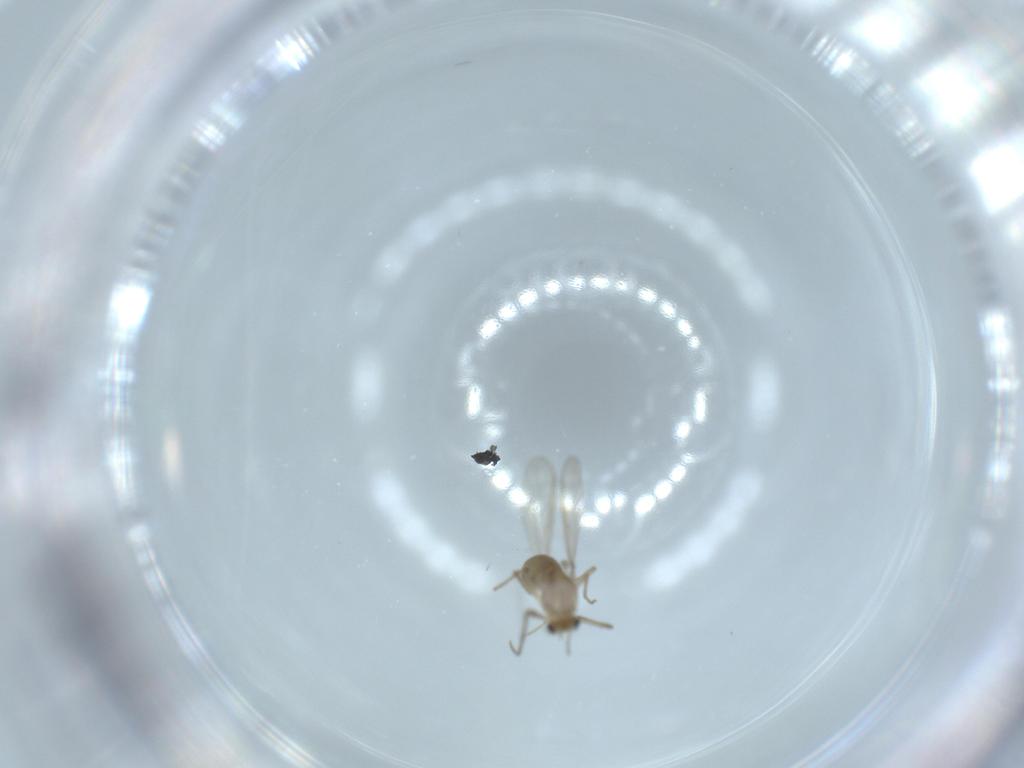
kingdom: Animalia
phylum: Arthropoda
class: Insecta
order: Diptera
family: Chironomidae
